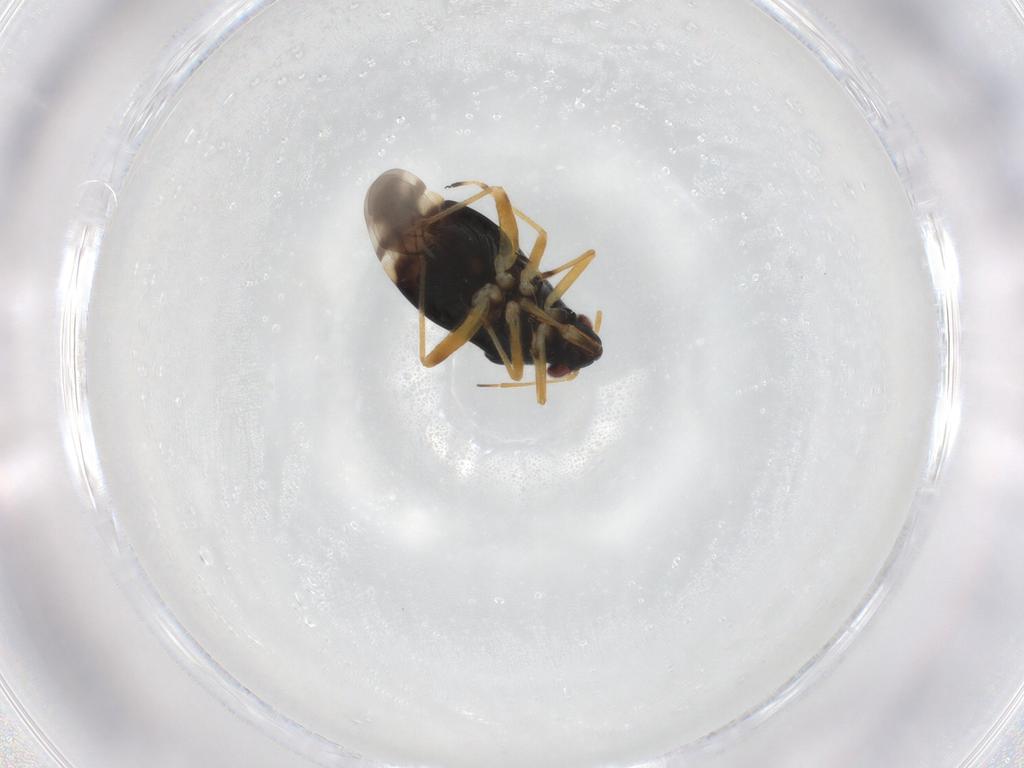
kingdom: Animalia
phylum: Arthropoda
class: Insecta
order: Hemiptera
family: Miridae
